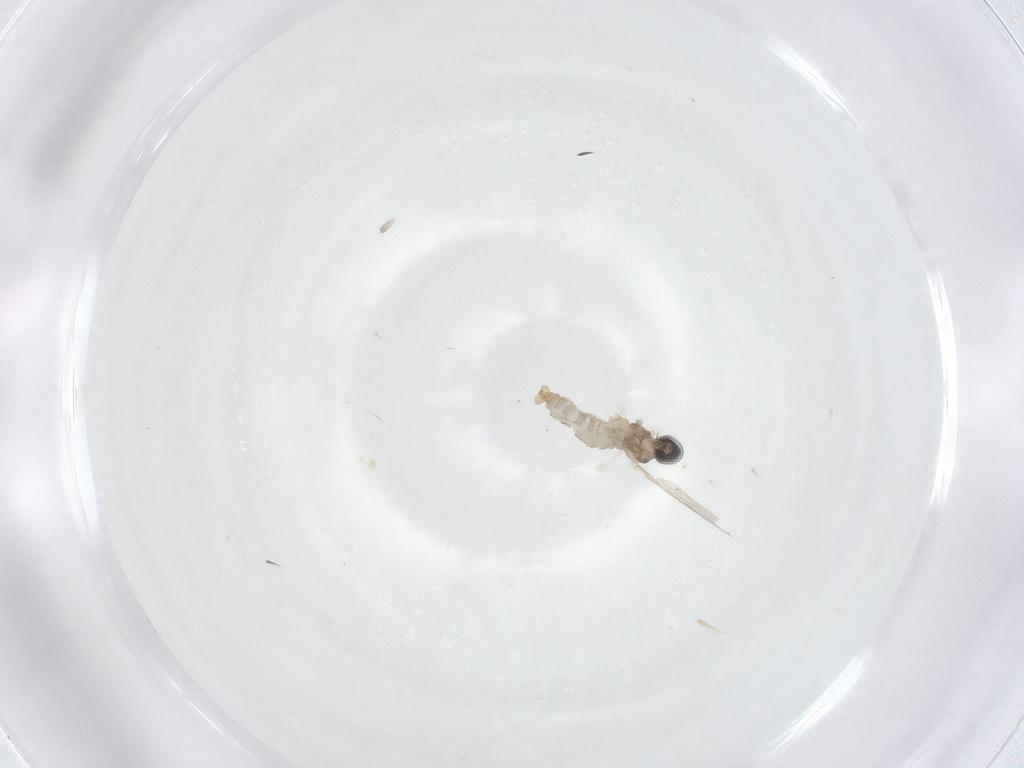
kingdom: Animalia
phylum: Arthropoda
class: Insecta
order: Diptera
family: Cecidomyiidae
